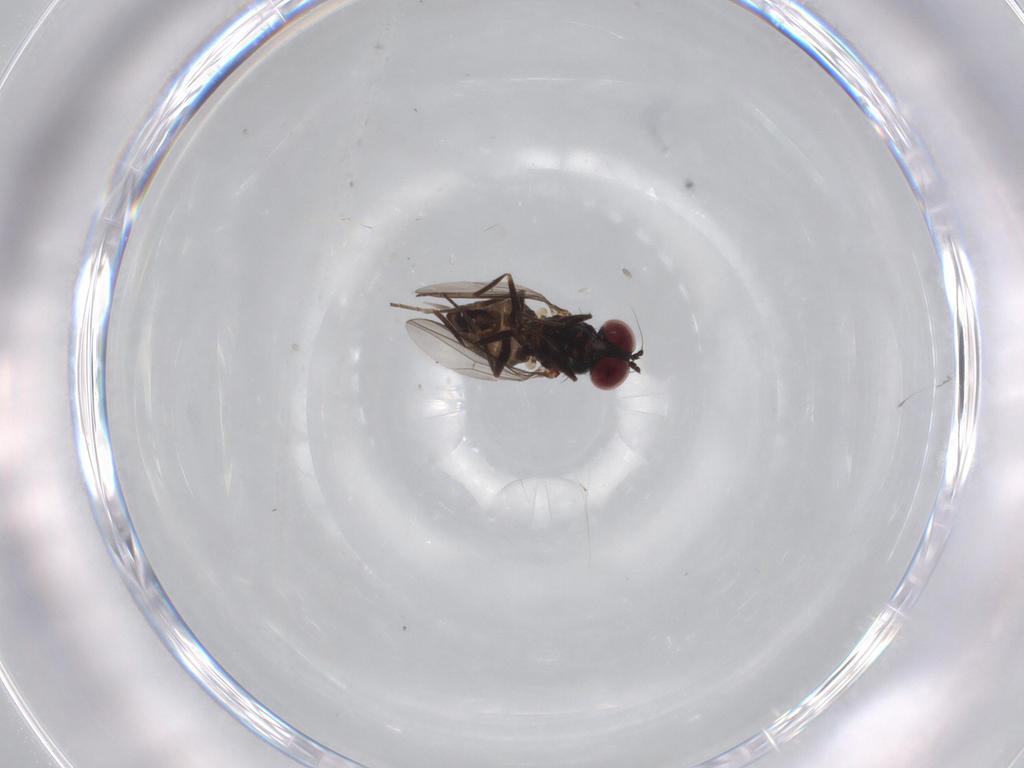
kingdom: Animalia
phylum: Arthropoda
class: Insecta
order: Diptera
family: Dolichopodidae
